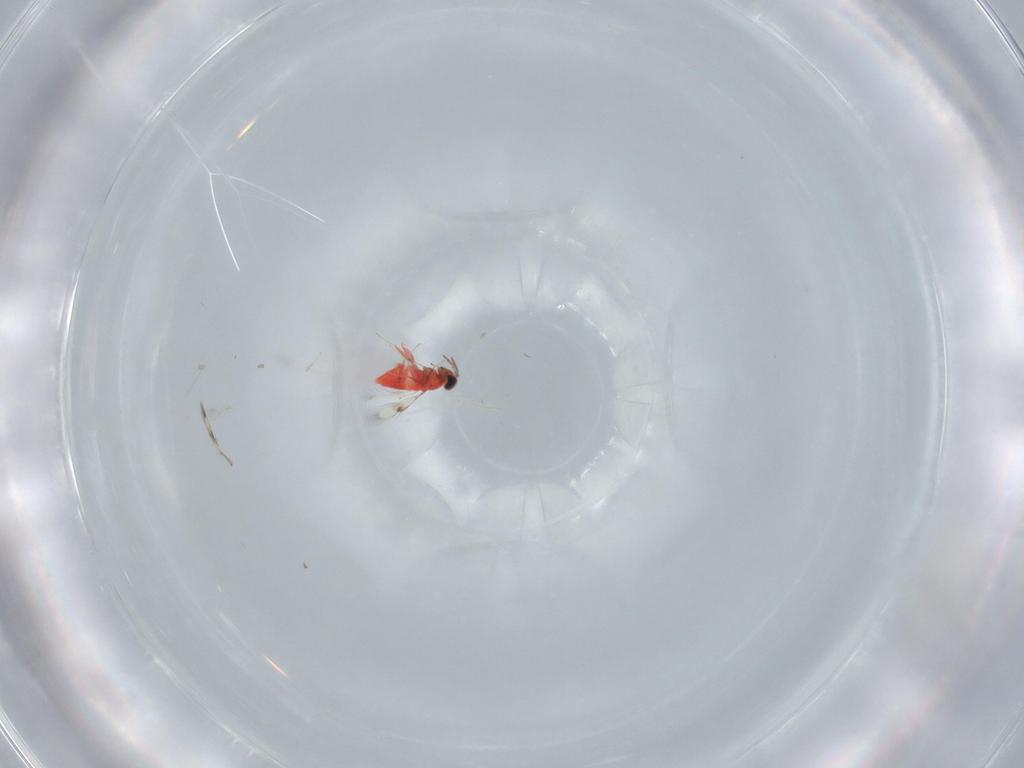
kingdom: Animalia
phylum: Arthropoda
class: Insecta
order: Hymenoptera
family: Trichogrammatidae
